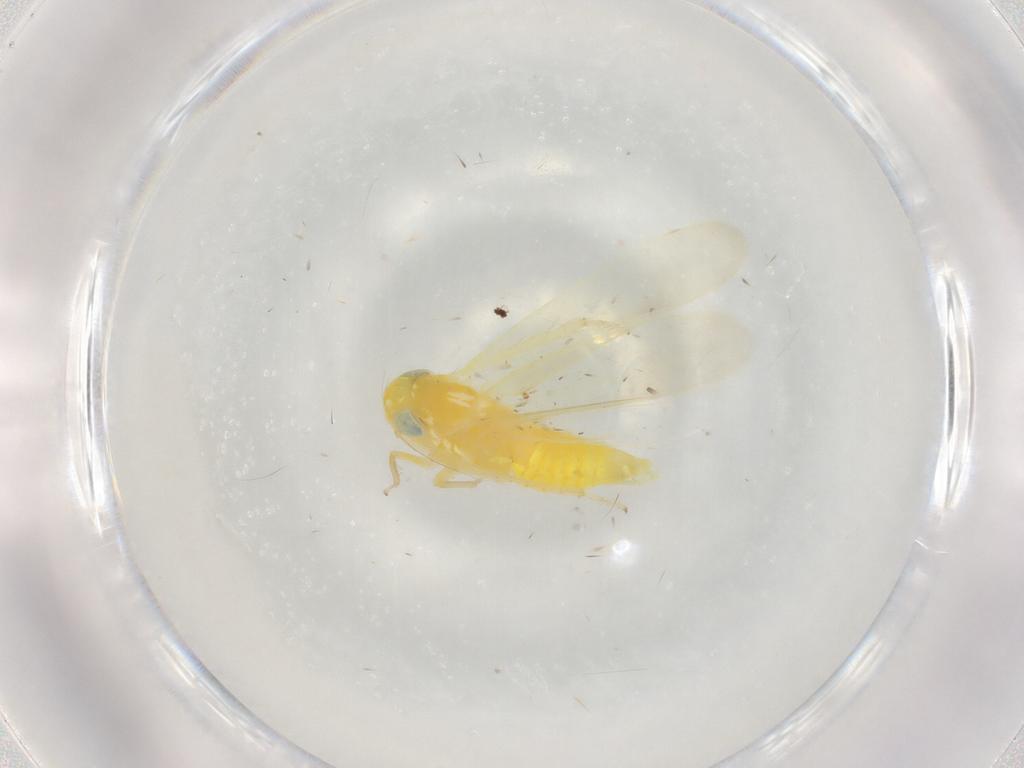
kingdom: Animalia
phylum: Arthropoda
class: Insecta
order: Hemiptera
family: Cicadellidae
